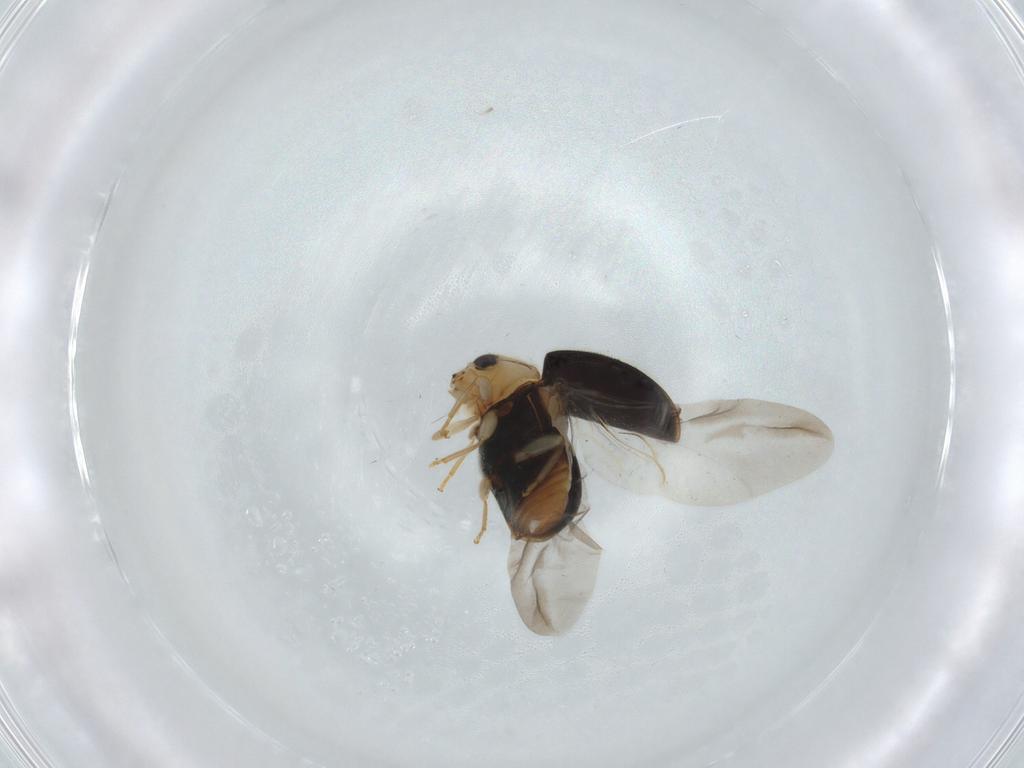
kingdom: Animalia
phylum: Arthropoda
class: Insecta
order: Coleoptera
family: Coccinellidae
